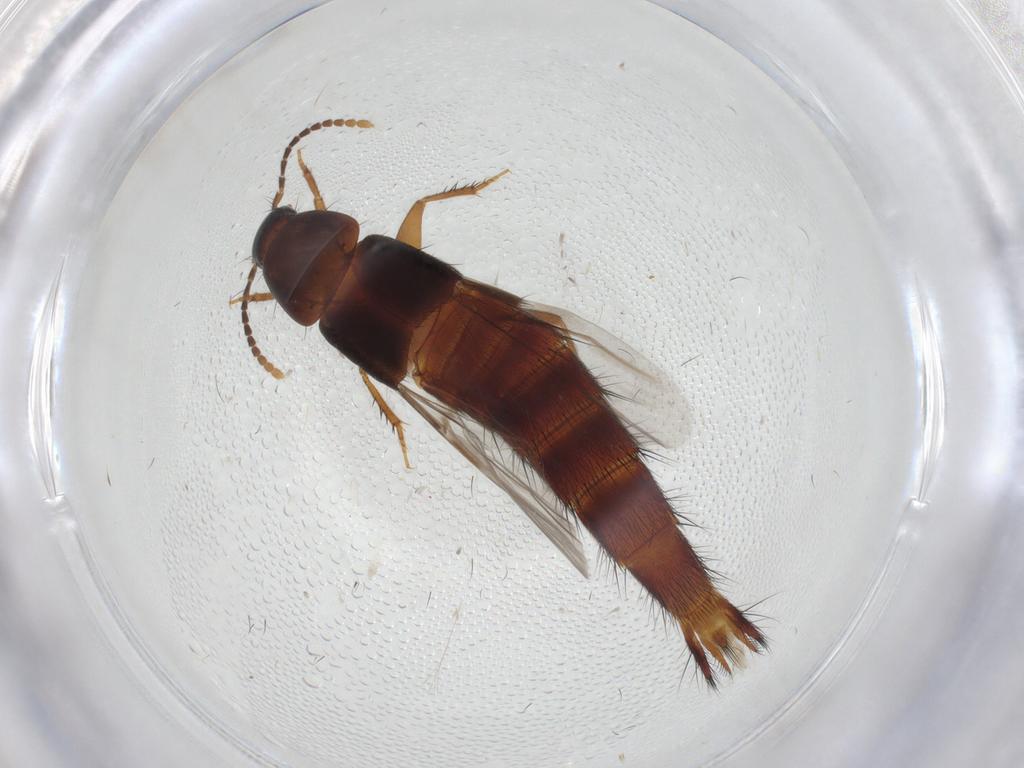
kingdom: Animalia
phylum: Arthropoda
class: Insecta
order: Coleoptera
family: Staphylinidae
